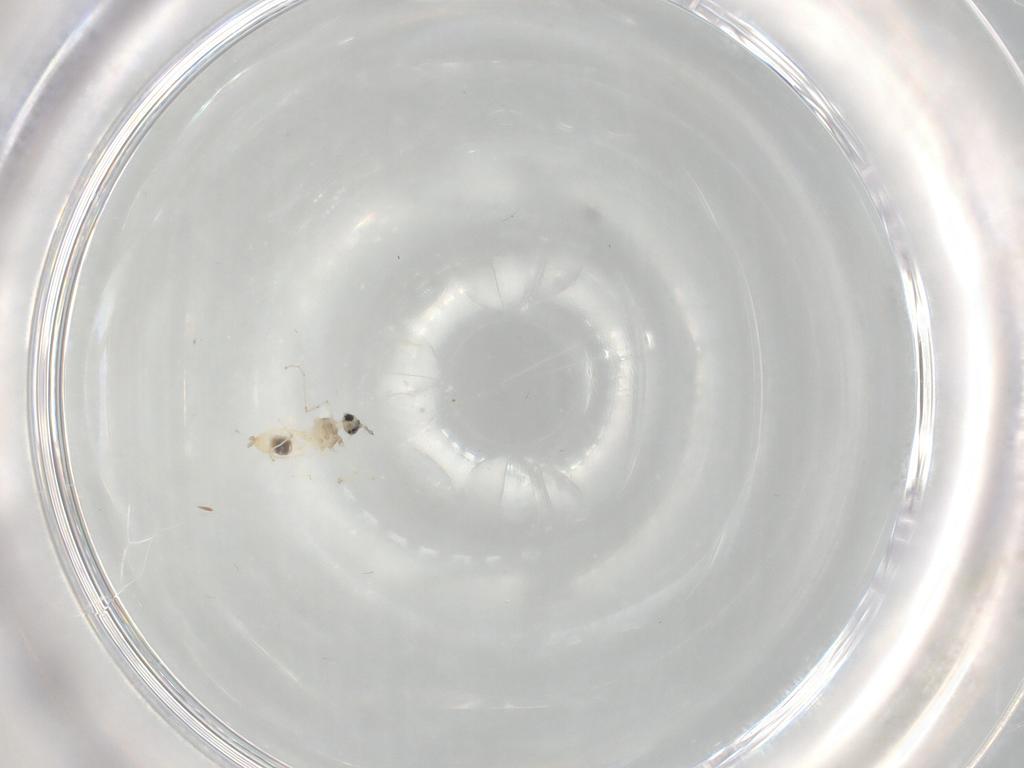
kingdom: Animalia
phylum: Arthropoda
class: Insecta
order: Diptera
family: Cecidomyiidae
